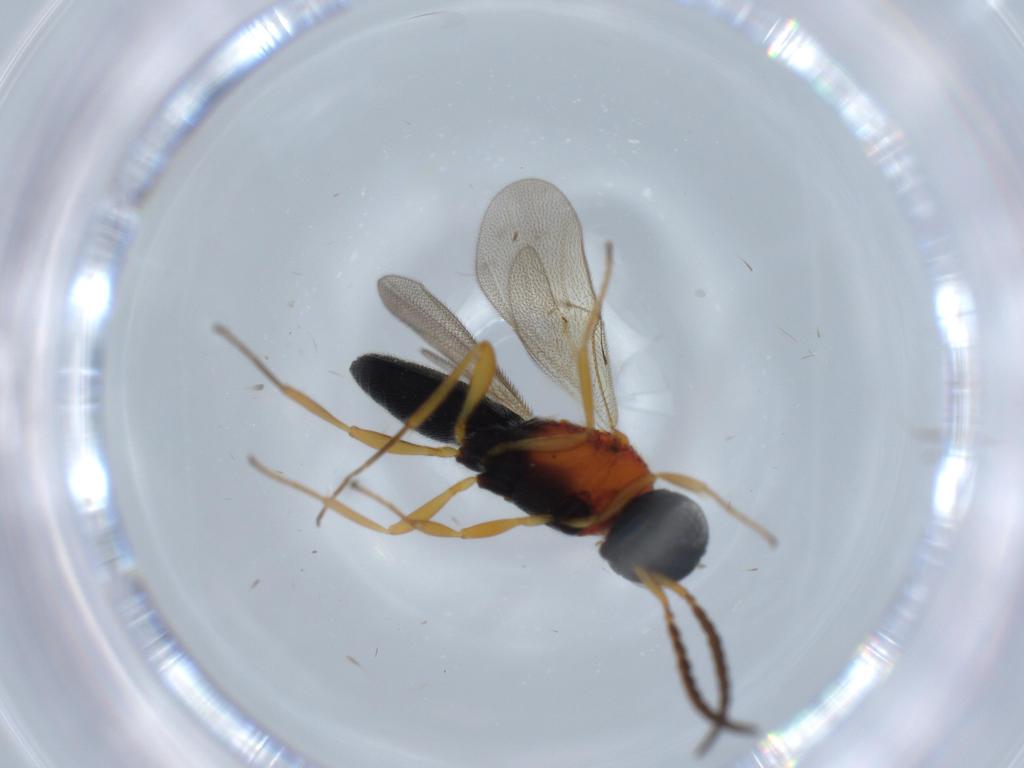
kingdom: Animalia
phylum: Arthropoda
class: Insecta
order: Hymenoptera
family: Scelionidae
